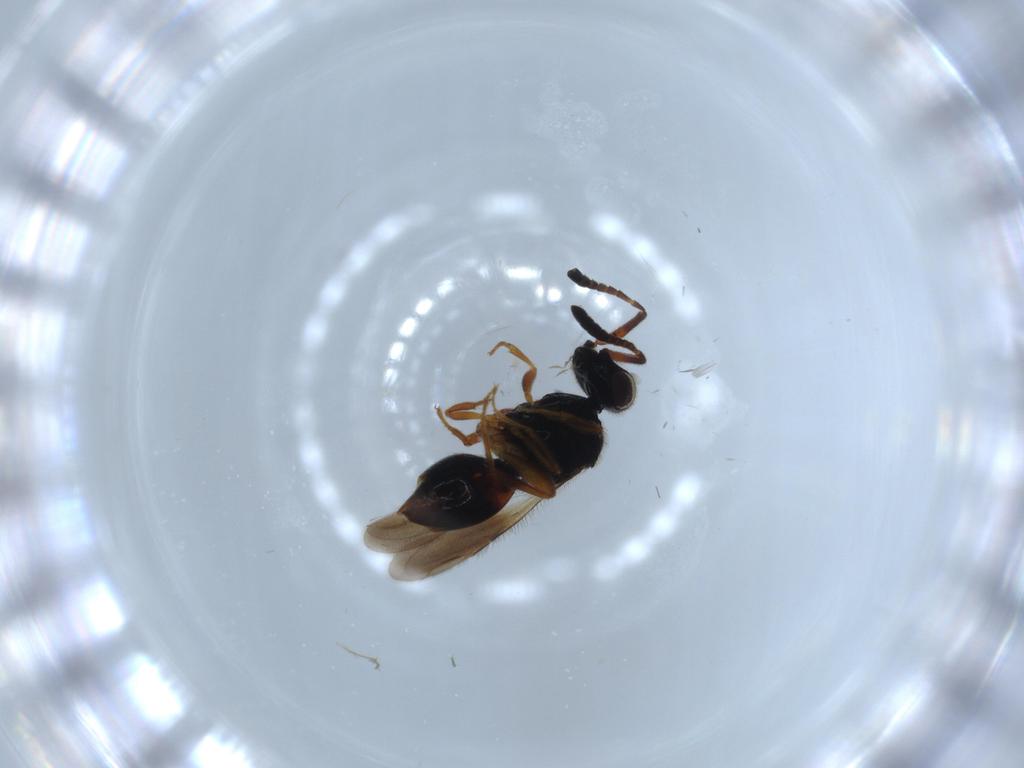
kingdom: Animalia
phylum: Arthropoda
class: Insecta
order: Hymenoptera
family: Scelionidae
